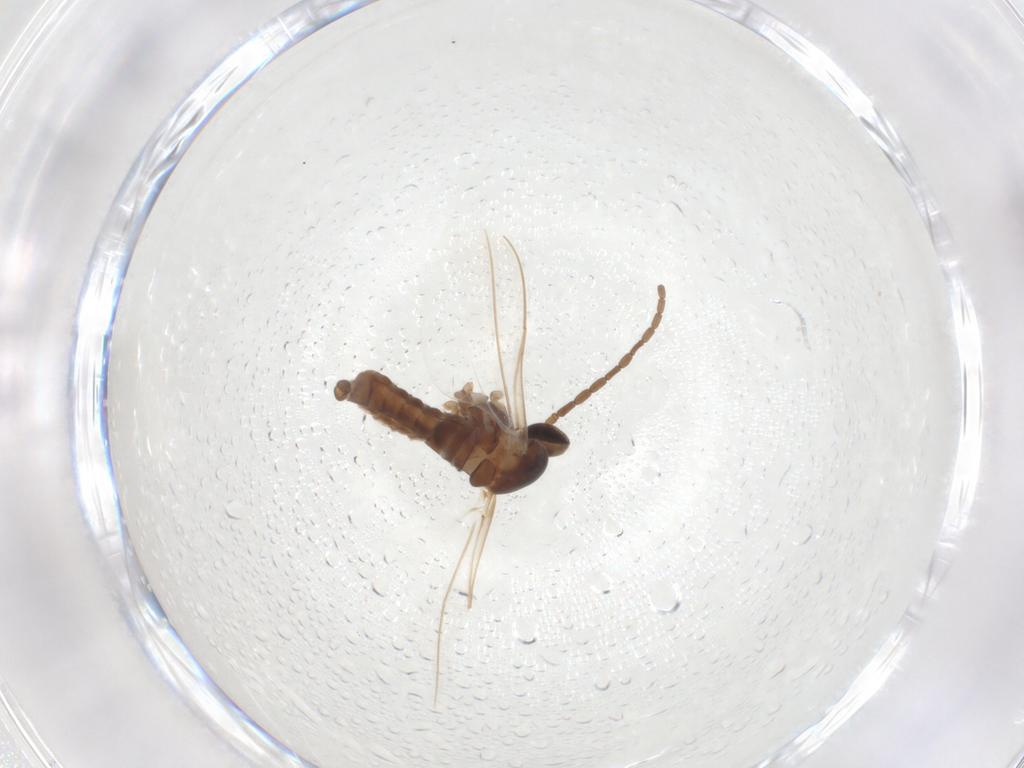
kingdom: Animalia
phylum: Arthropoda
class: Insecta
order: Diptera
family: Cecidomyiidae
